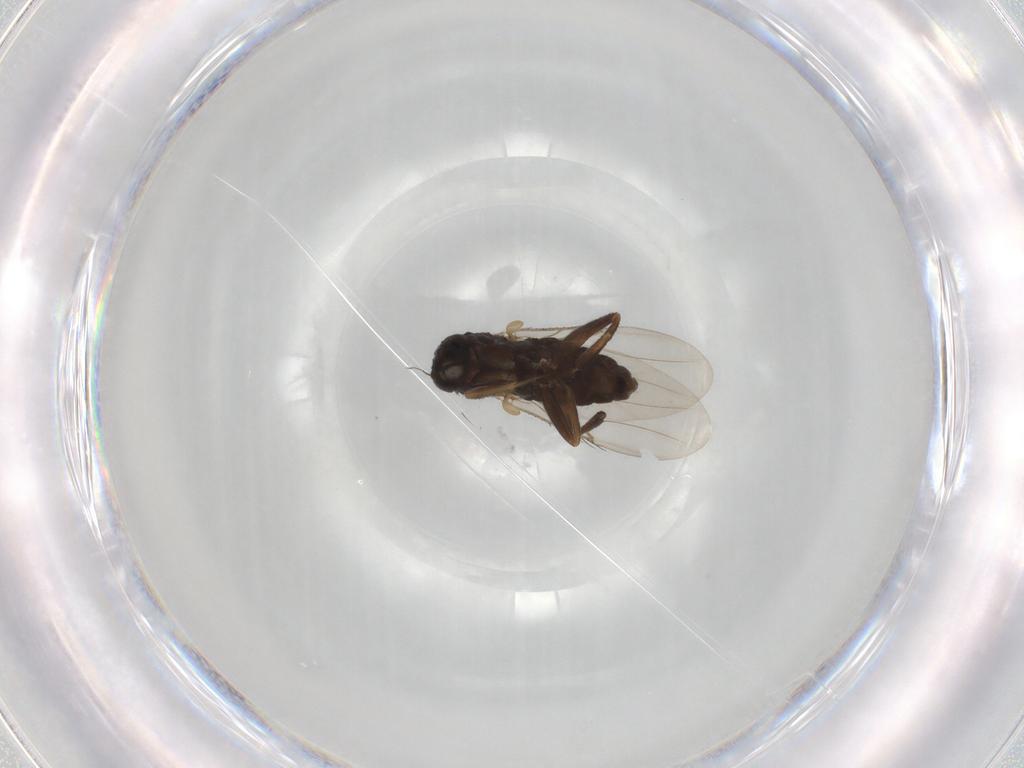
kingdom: Animalia
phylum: Arthropoda
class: Insecta
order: Diptera
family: Phoridae
